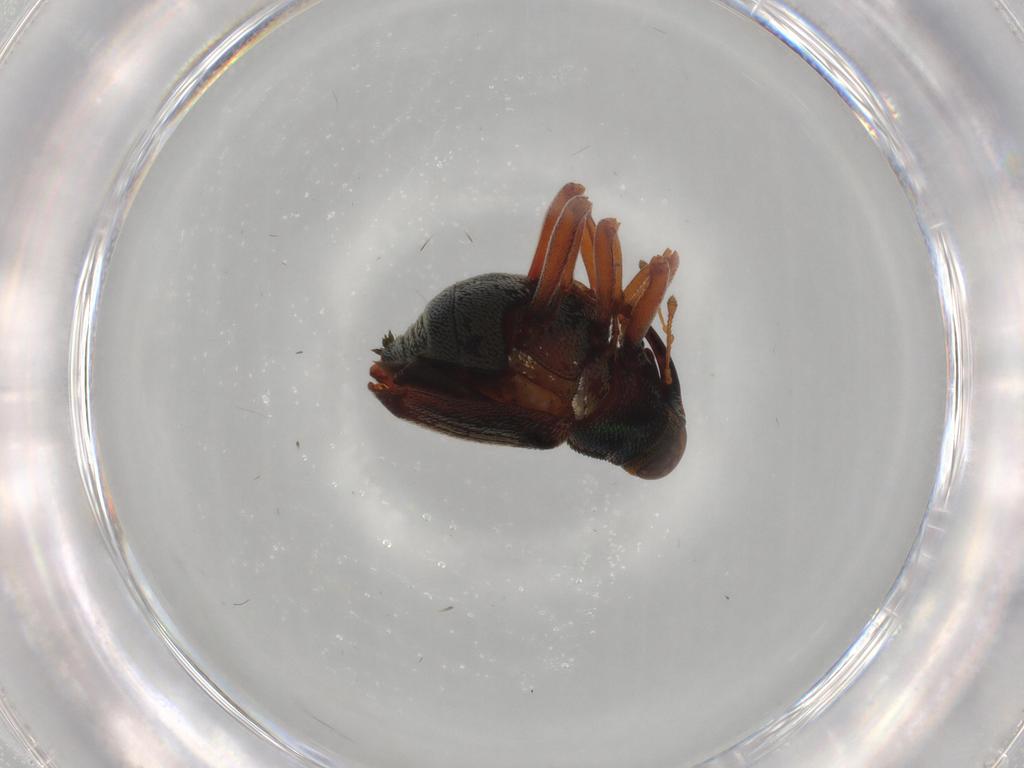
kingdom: Animalia
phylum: Arthropoda
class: Insecta
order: Coleoptera
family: Curculionidae
